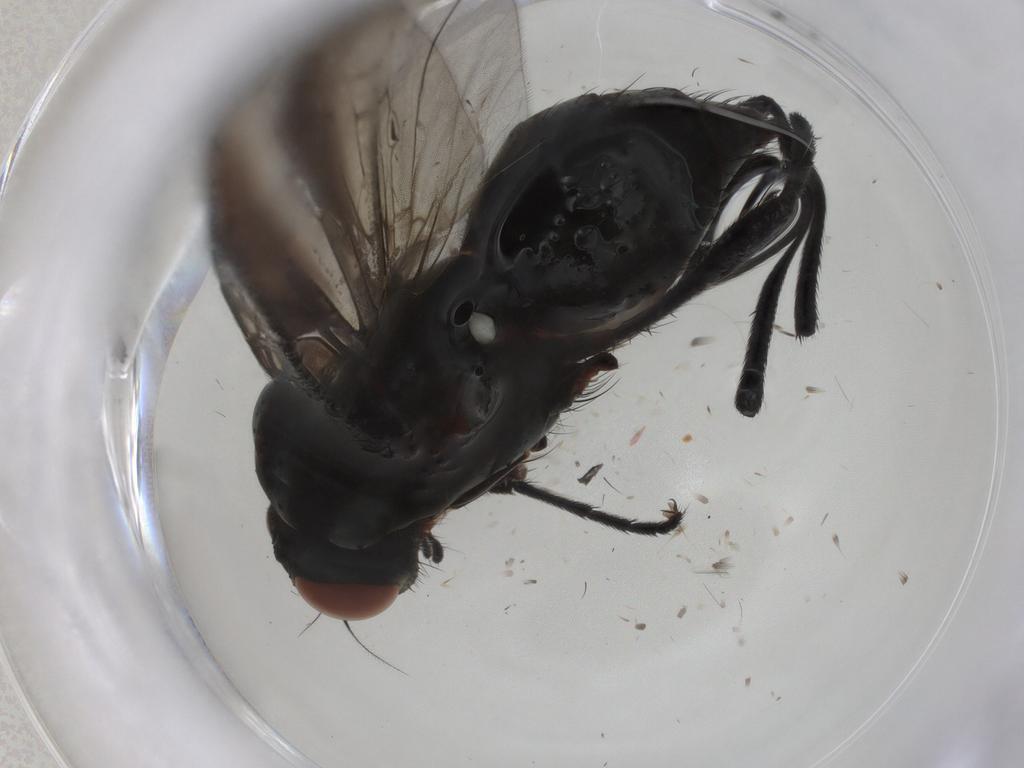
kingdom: Animalia
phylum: Arthropoda
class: Insecta
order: Diptera
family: Anthomyiidae
